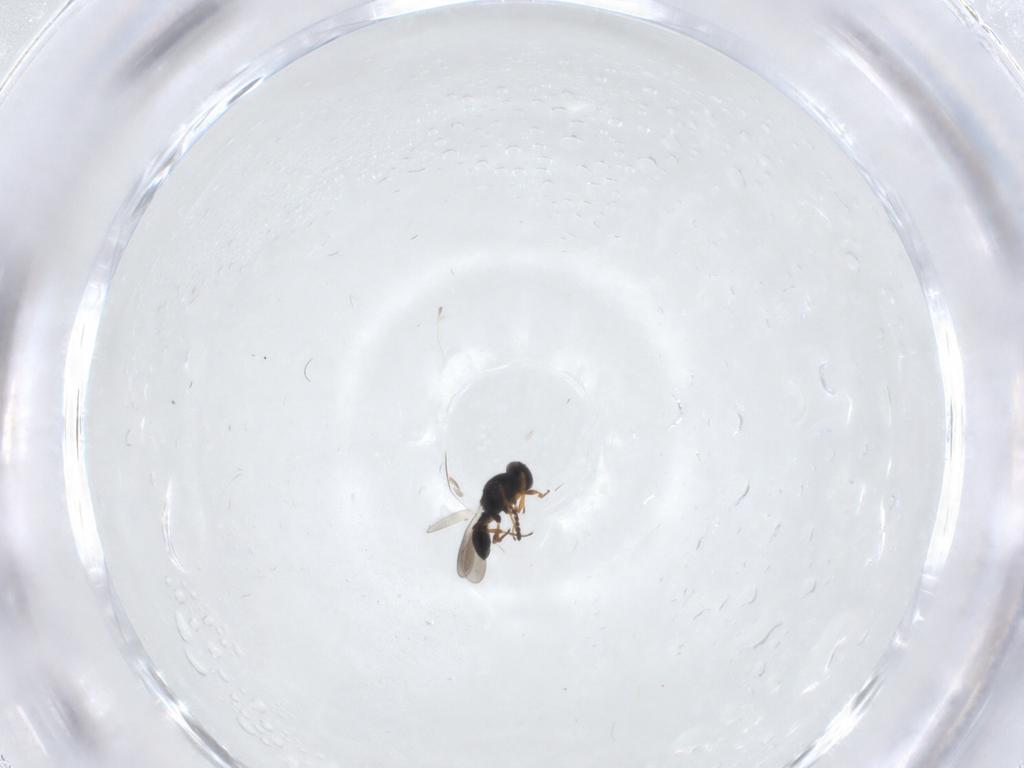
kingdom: Animalia
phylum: Arthropoda
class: Insecta
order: Hymenoptera
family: Platygastridae
